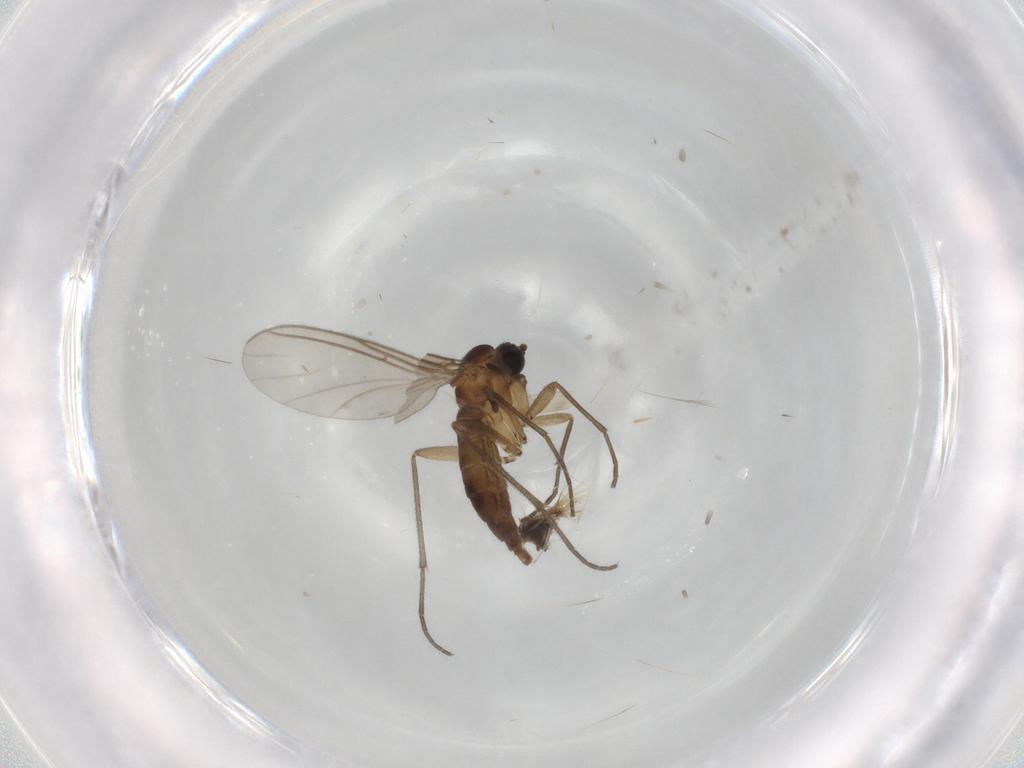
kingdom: Animalia
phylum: Arthropoda
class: Insecta
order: Diptera
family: Sciaridae
